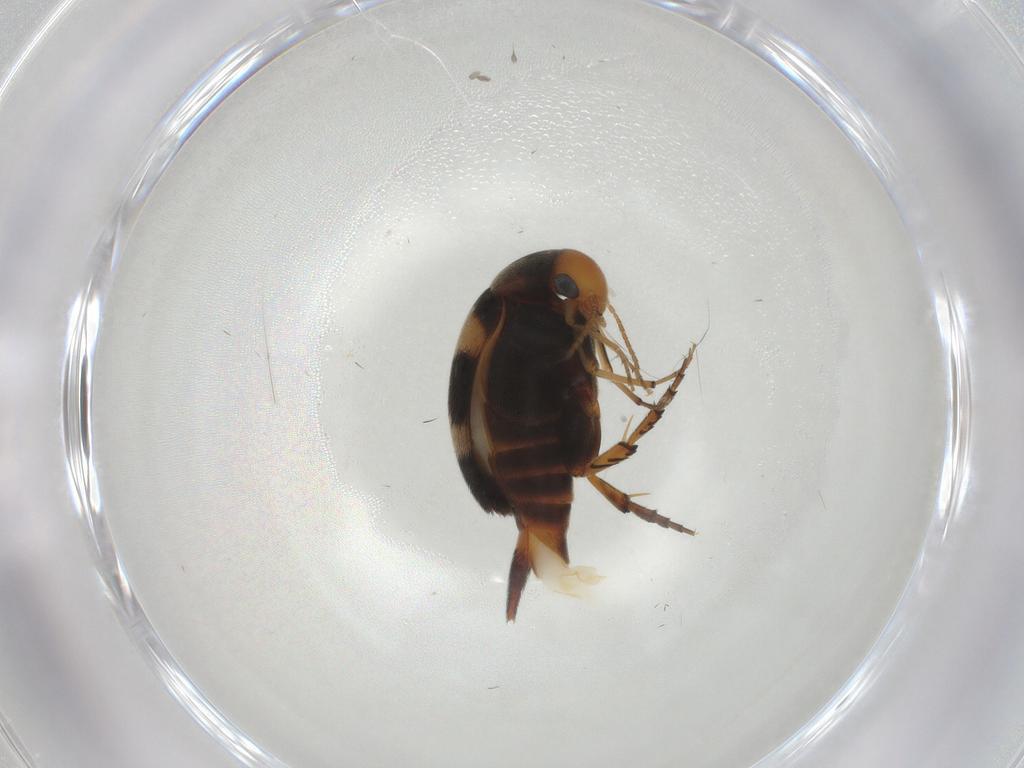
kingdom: Animalia
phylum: Arthropoda
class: Insecta
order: Coleoptera
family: Mordellidae
